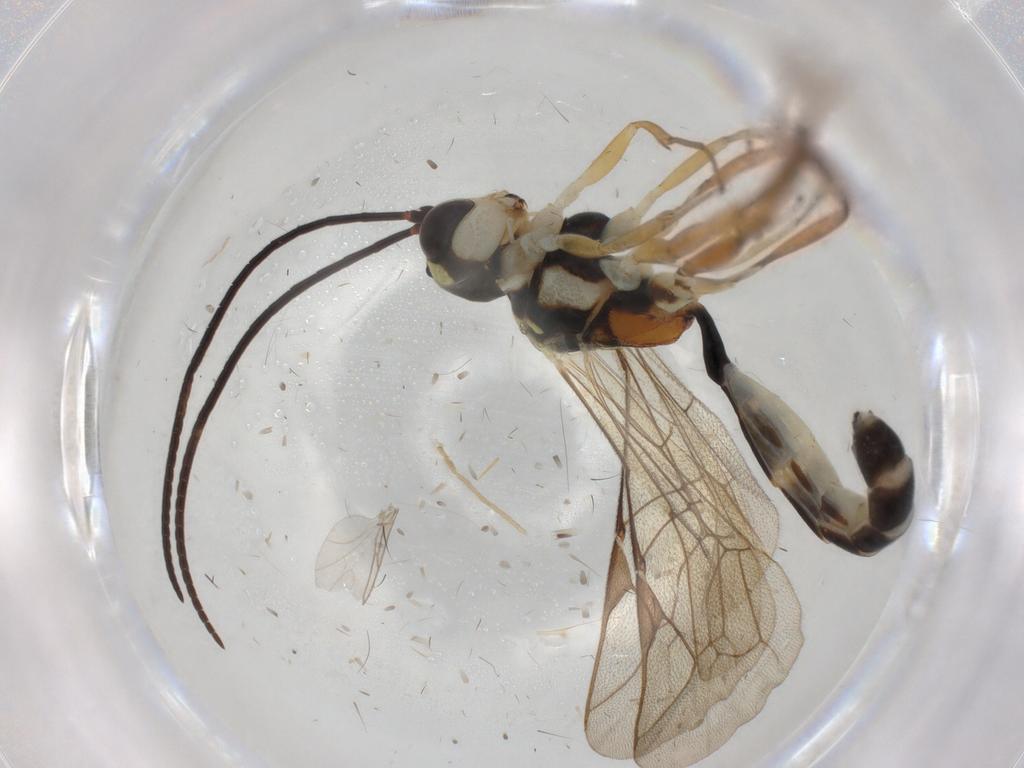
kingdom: Animalia
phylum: Arthropoda
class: Insecta
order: Hymenoptera
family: Ichneumonidae
